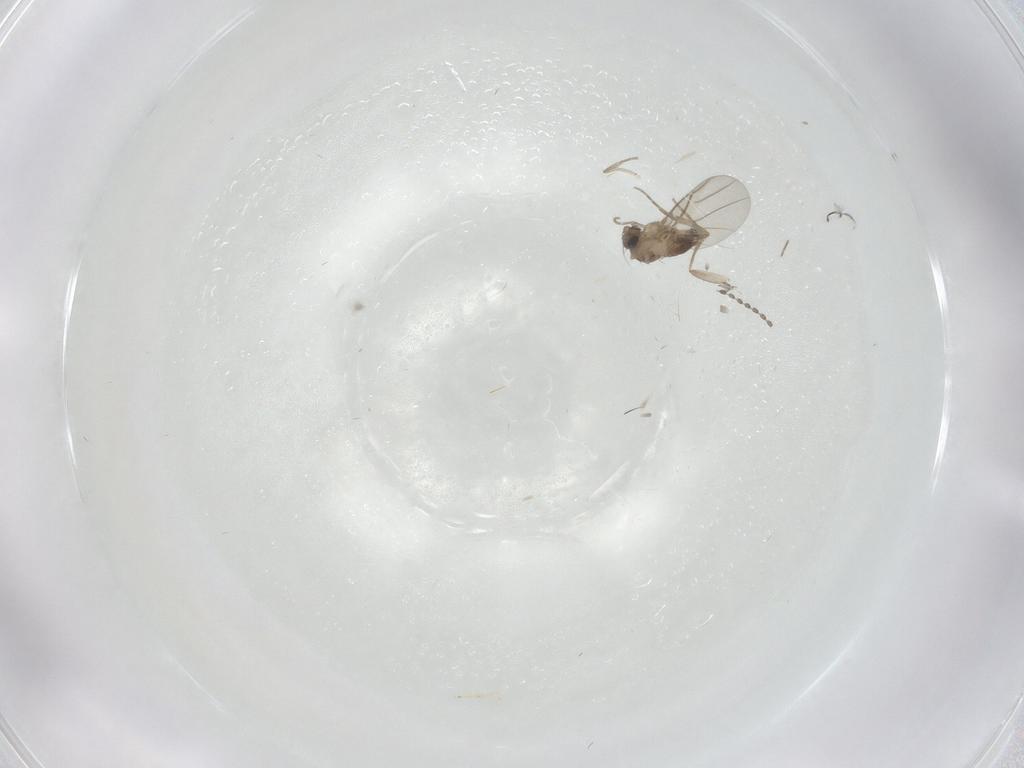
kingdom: Animalia
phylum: Arthropoda
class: Insecta
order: Diptera
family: Phoridae
